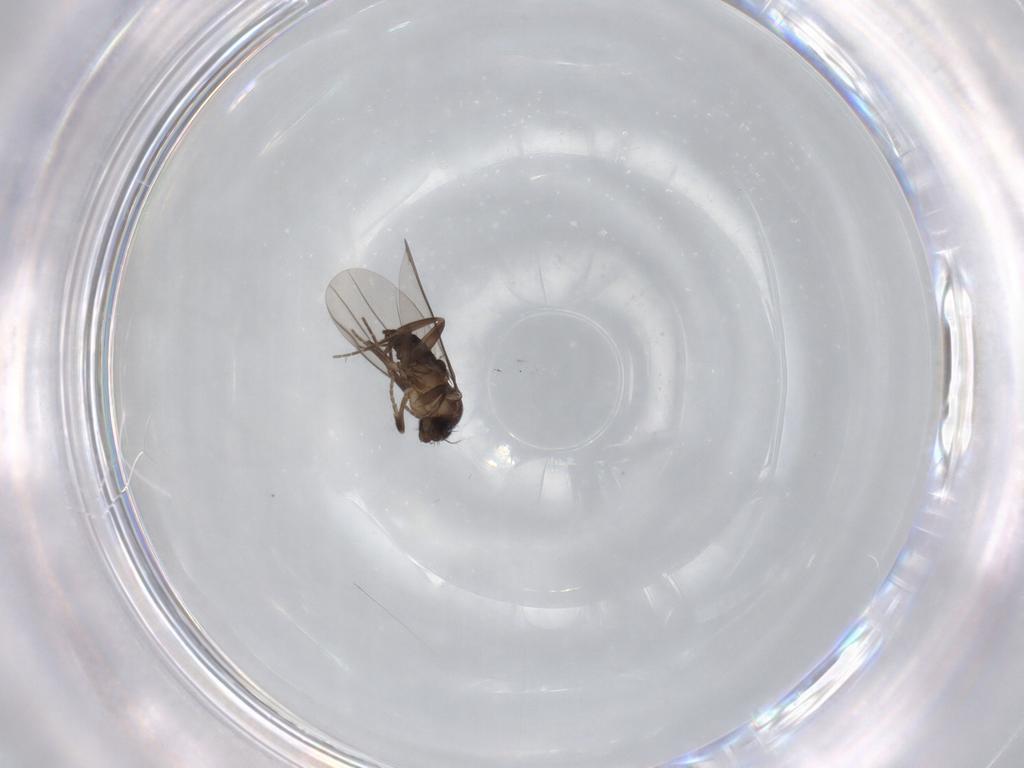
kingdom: Animalia
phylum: Arthropoda
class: Insecta
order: Diptera
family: Phoridae
